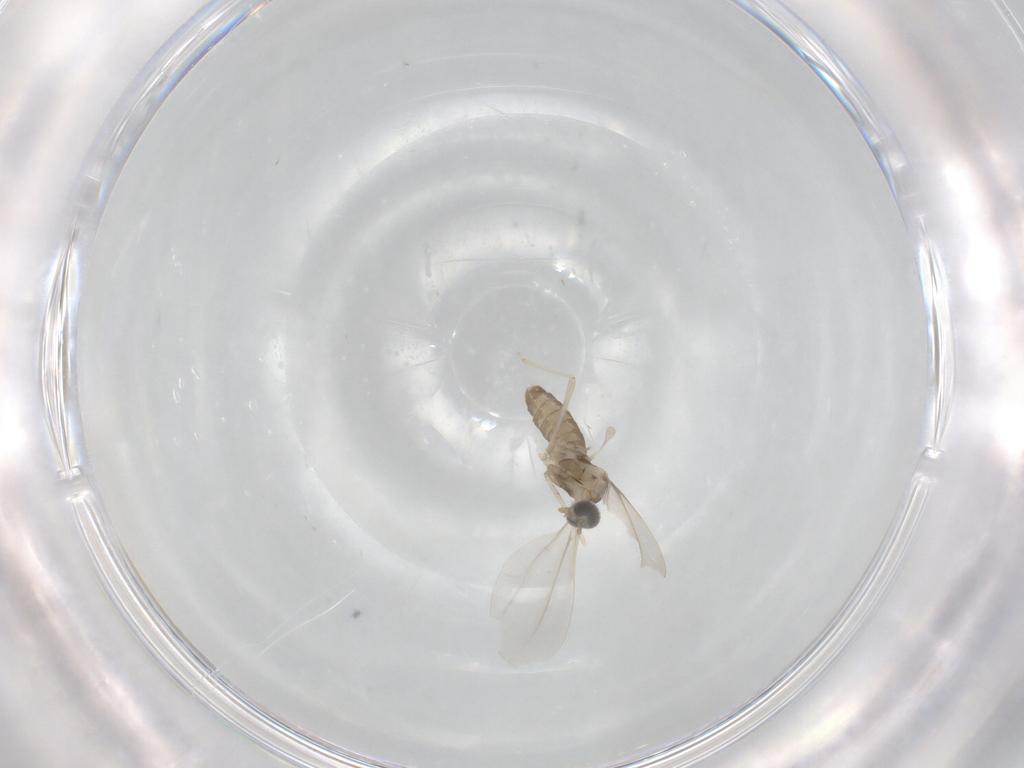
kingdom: Animalia
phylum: Arthropoda
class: Insecta
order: Diptera
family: Cecidomyiidae
